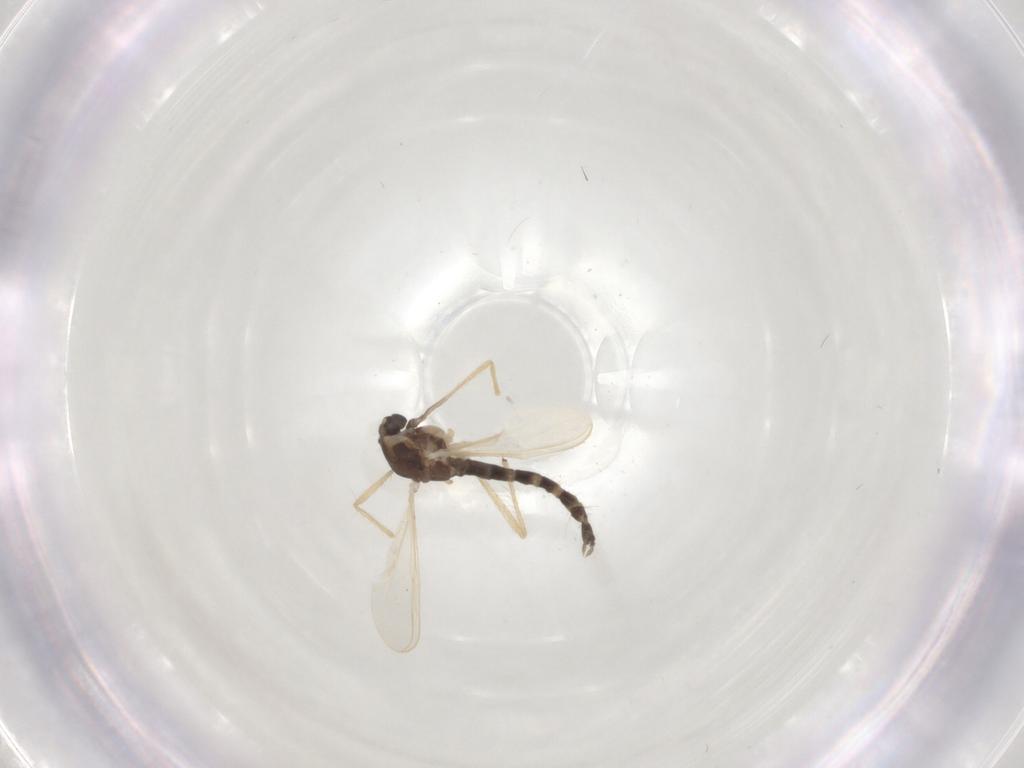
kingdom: Animalia
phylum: Arthropoda
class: Insecta
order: Diptera
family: Chironomidae
